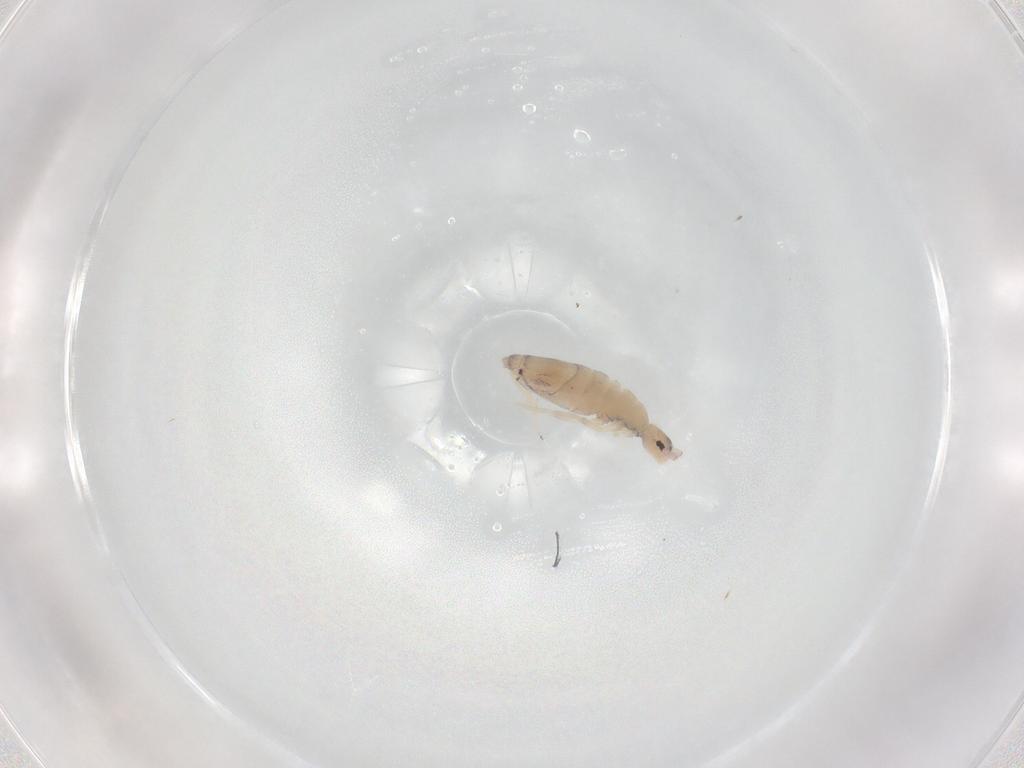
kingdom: Animalia
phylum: Arthropoda
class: Collembola
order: Entomobryomorpha
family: Entomobryidae
